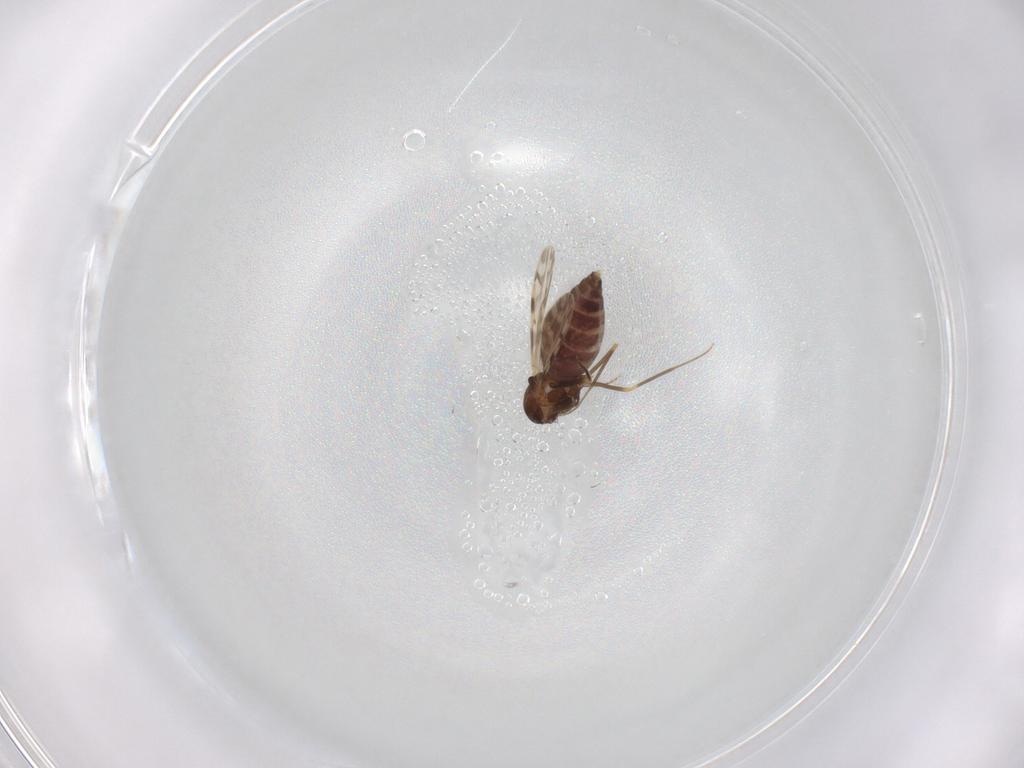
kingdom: Animalia
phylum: Arthropoda
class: Insecta
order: Diptera
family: Ceratopogonidae
